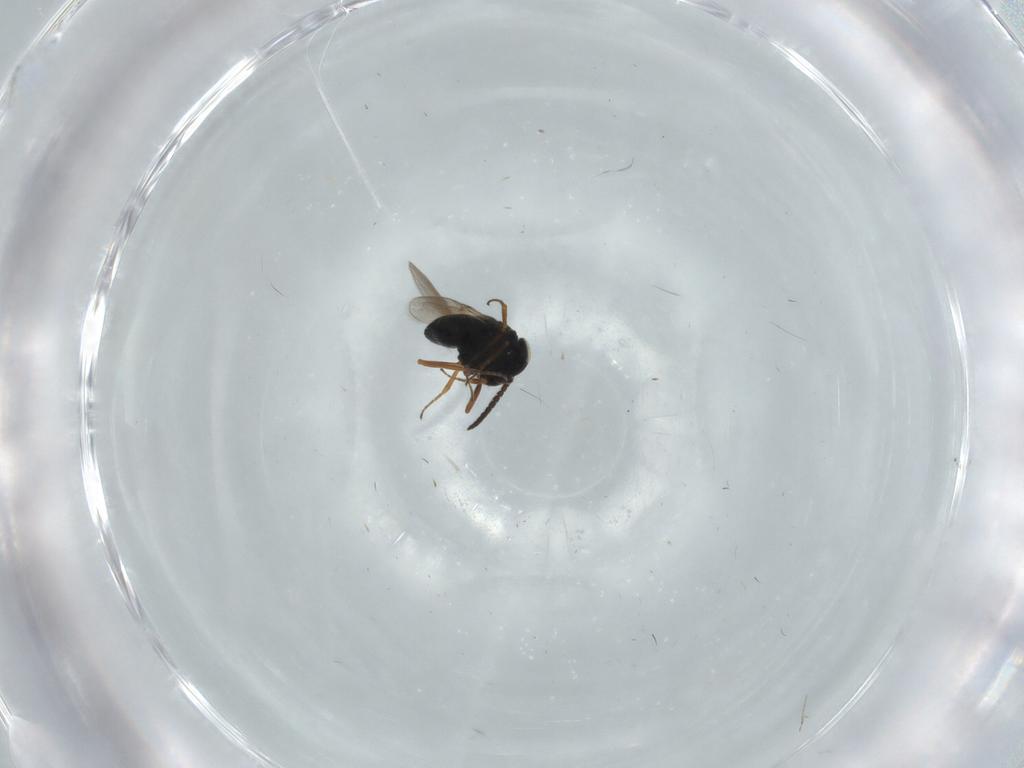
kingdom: Animalia
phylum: Arthropoda
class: Insecta
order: Hymenoptera
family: Scelionidae
